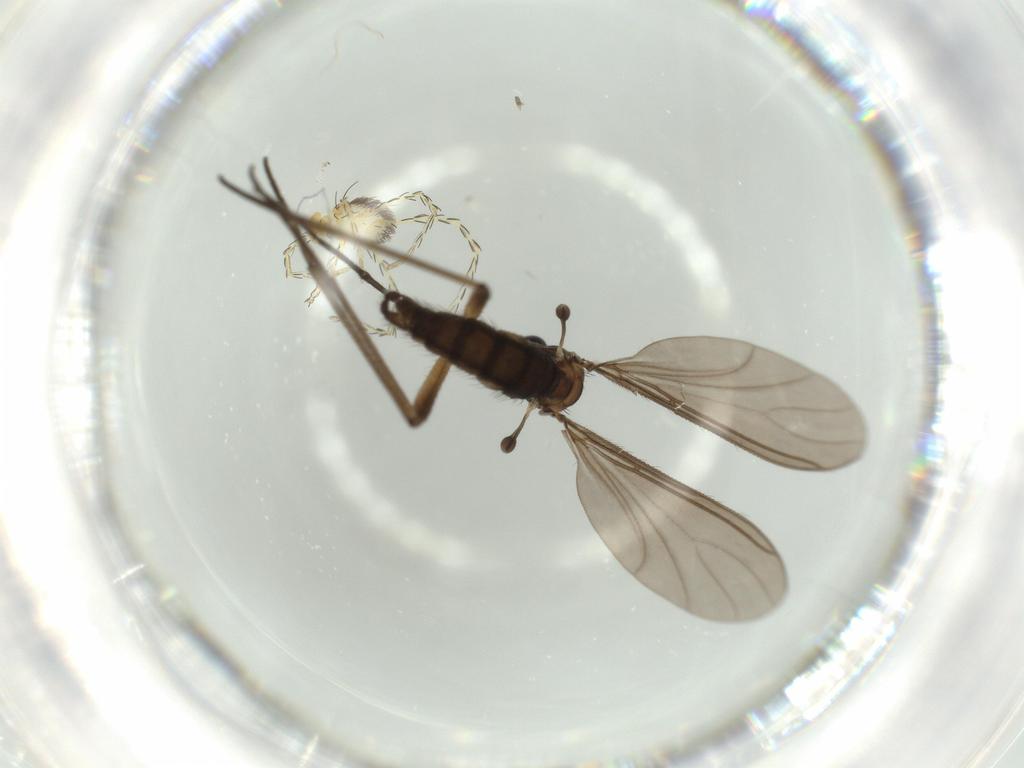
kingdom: Animalia
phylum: Arthropoda
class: Insecta
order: Diptera
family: Sciaridae
